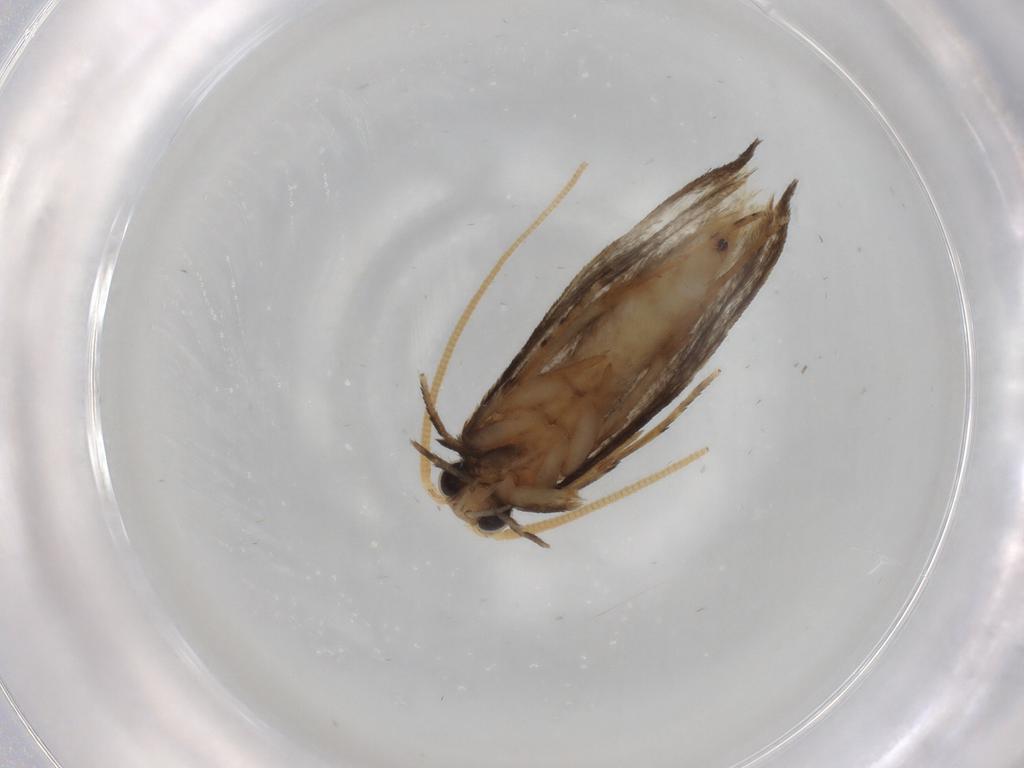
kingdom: Animalia
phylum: Arthropoda
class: Insecta
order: Lepidoptera
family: Tineidae
